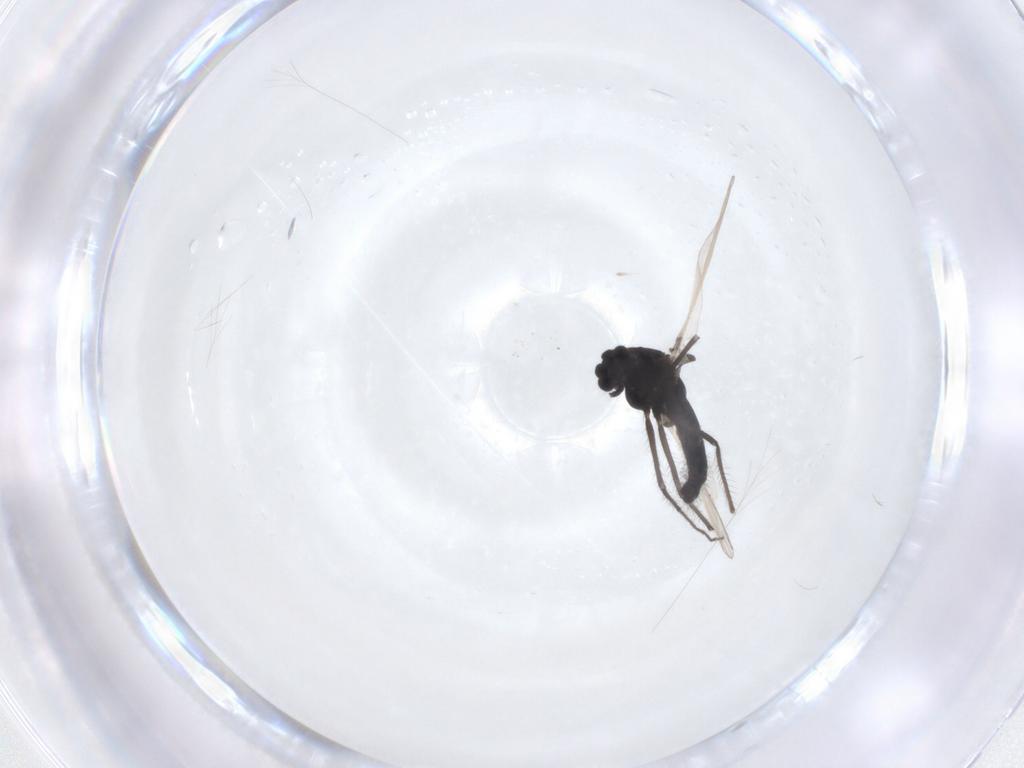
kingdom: Animalia
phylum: Arthropoda
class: Insecta
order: Diptera
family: Chironomidae
